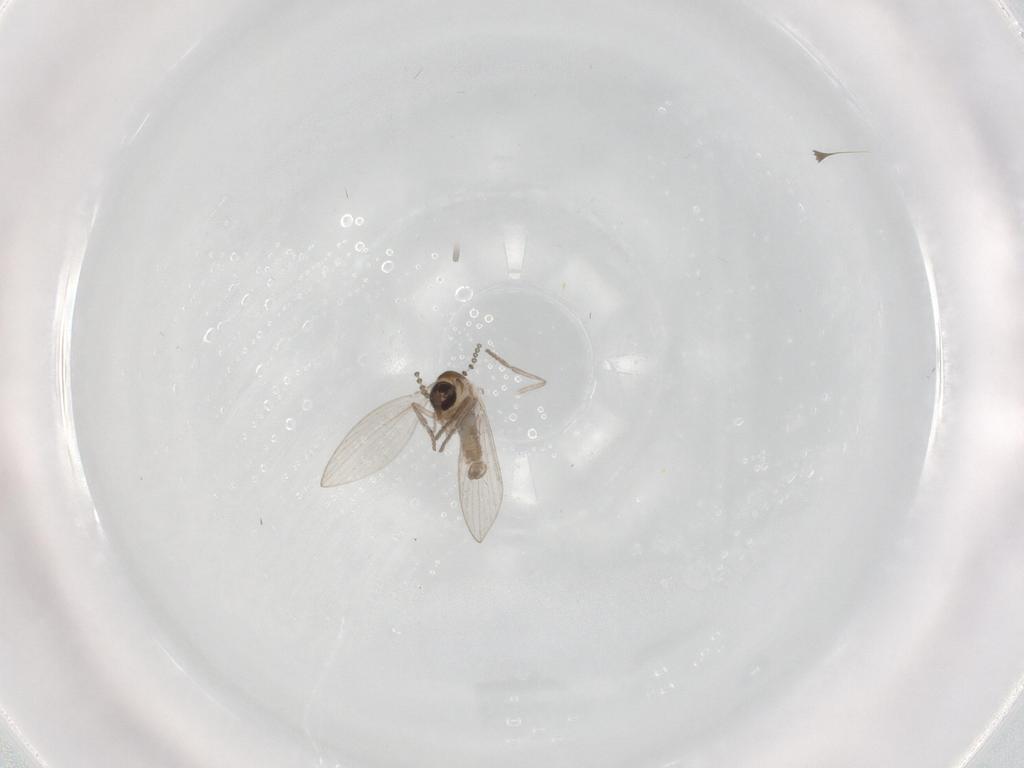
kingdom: Animalia
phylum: Arthropoda
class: Insecta
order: Diptera
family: Psychodidae
